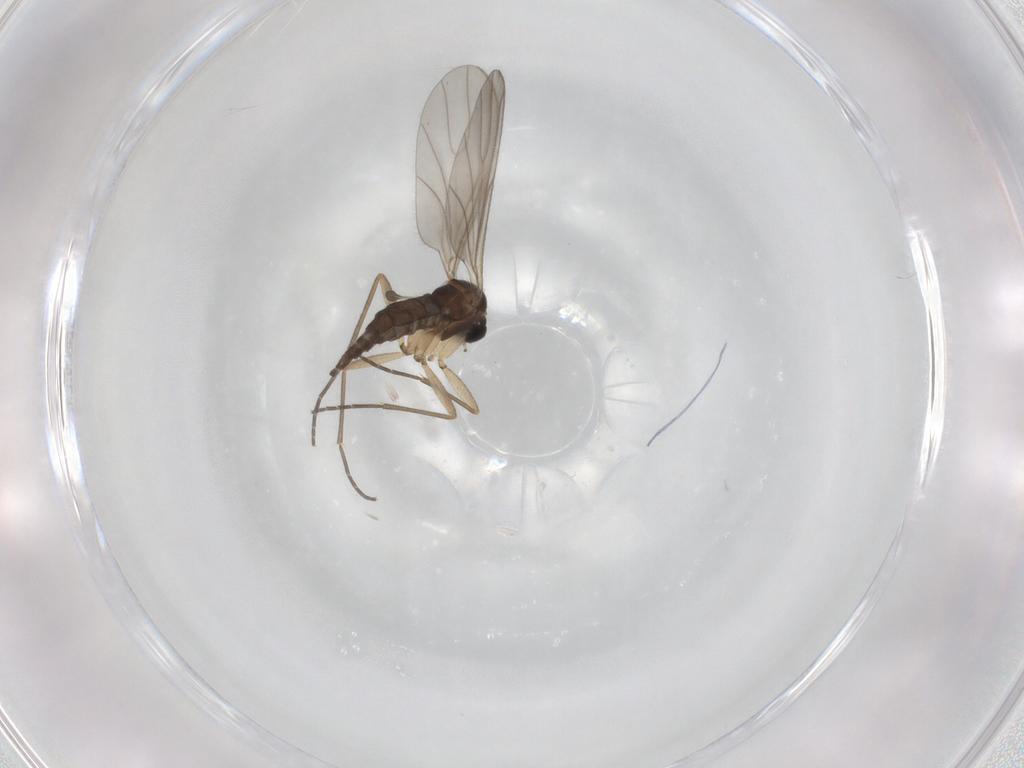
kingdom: Animalia
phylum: Arthropoda
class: Insecta
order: Diptera
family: Sciaridae
